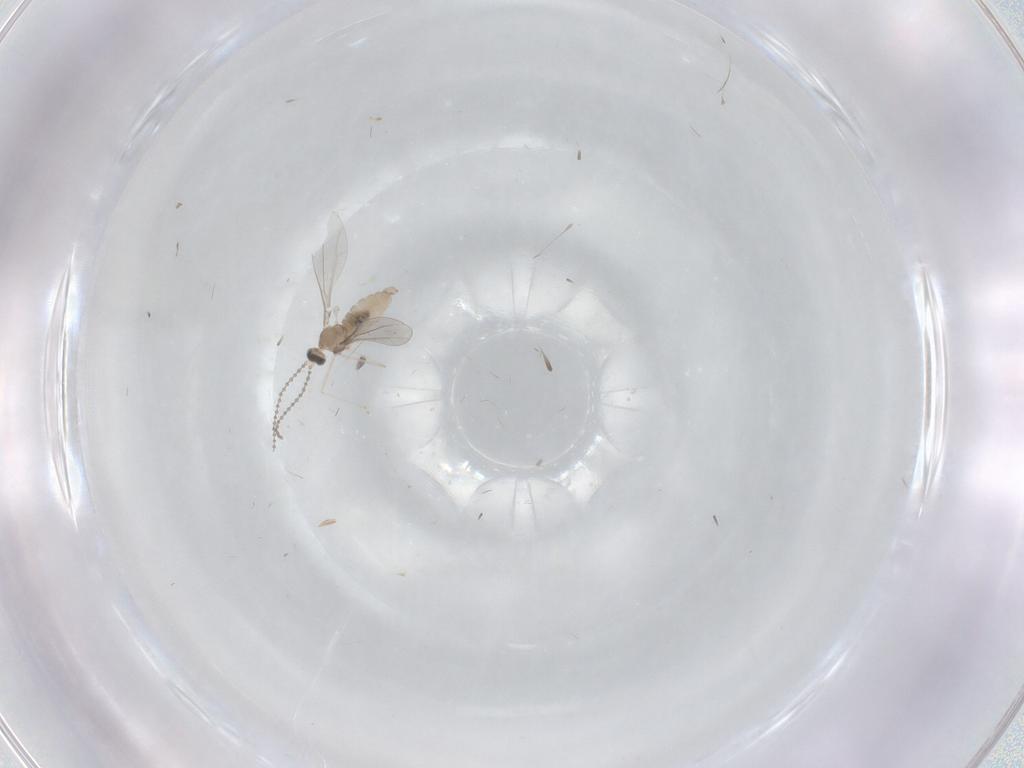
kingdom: Animalia
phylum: Arthropoda
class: Insecta
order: Diptera
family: Cecidomyiidae
